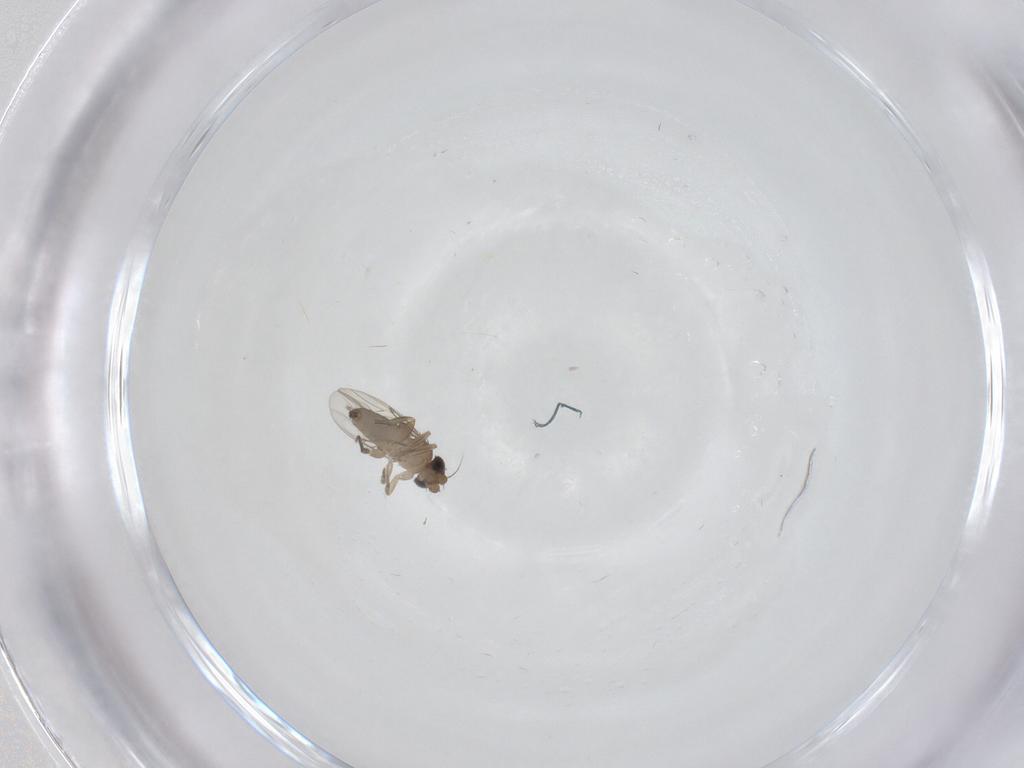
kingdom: Animalia
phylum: Arthropoda
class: Insecta
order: Diptera
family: Phoridae
